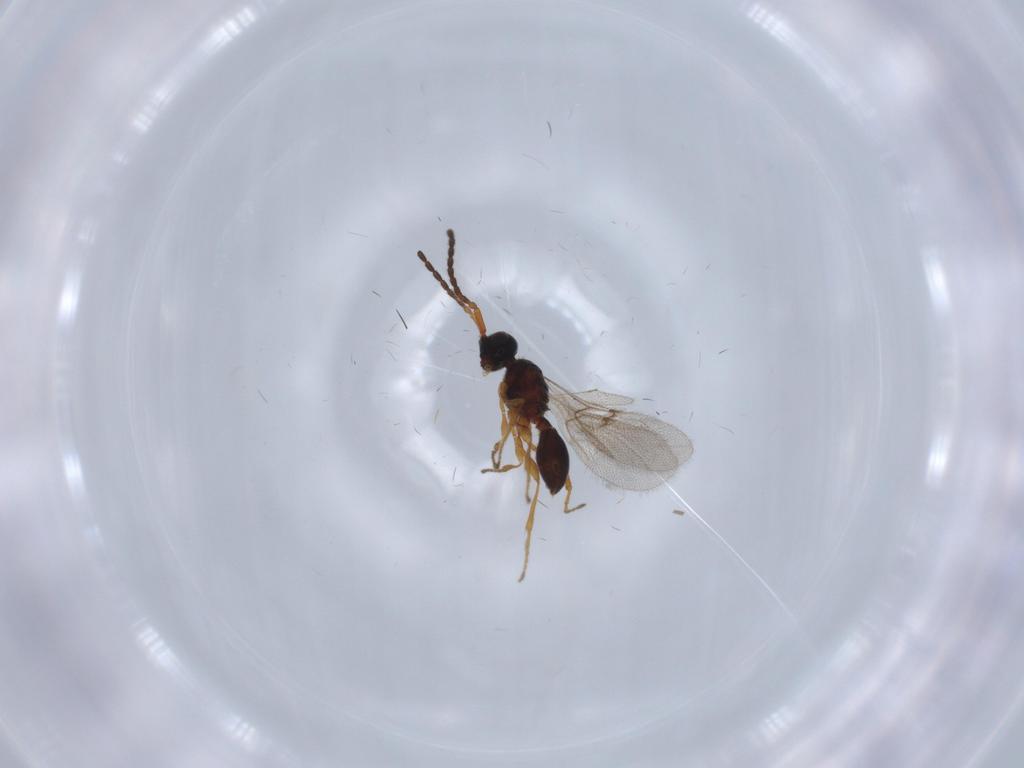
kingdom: Animalia
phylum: Arthropoda
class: Insecta
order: Hymenoptera
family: Diapriidae
